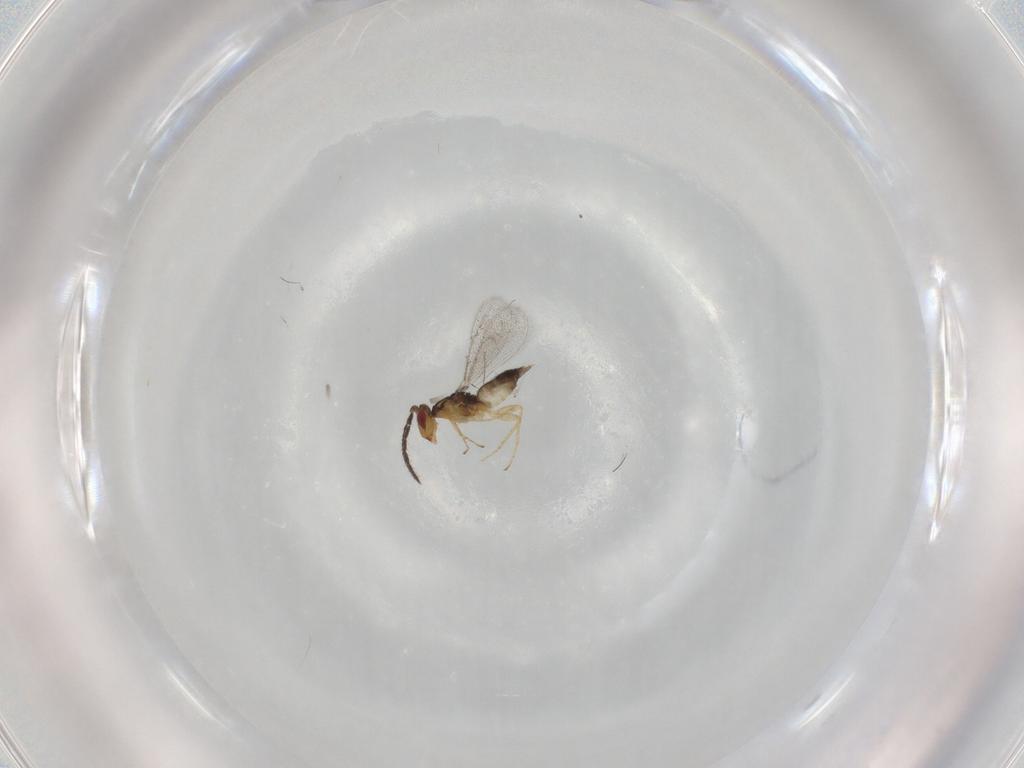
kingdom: Animalia
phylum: Arthropoda
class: Insecta
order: Hymenoptera
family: Eulophidae
